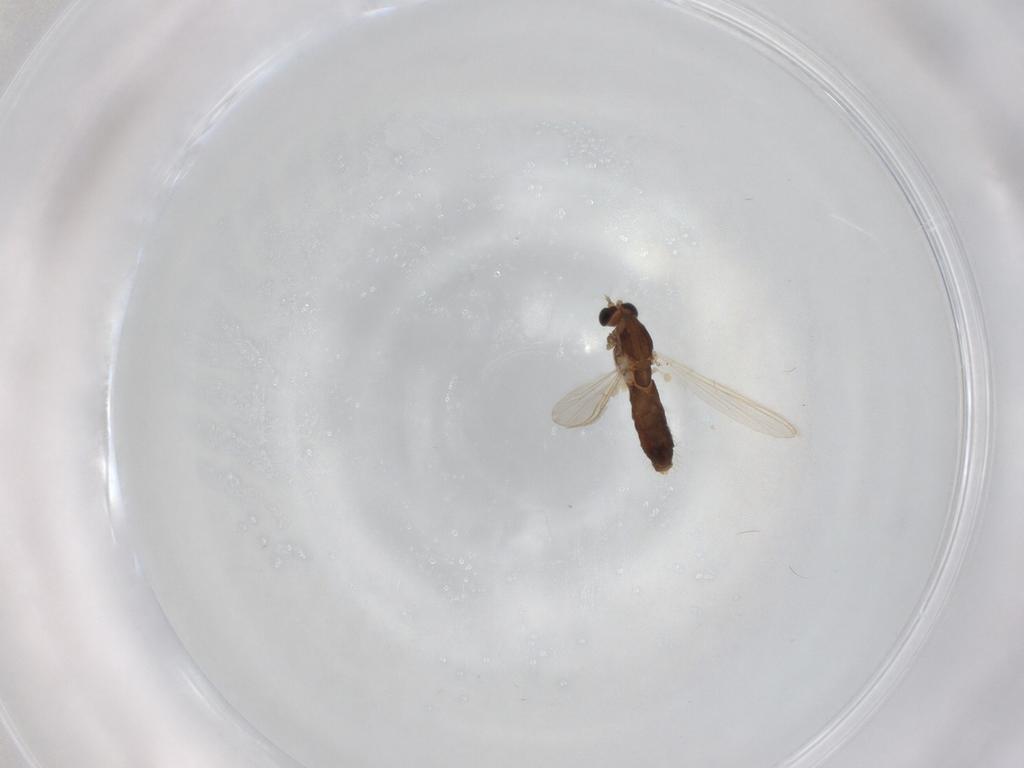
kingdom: Animalia
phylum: Arthropoda
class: Insecta
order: Diptera
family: Chironomidae
